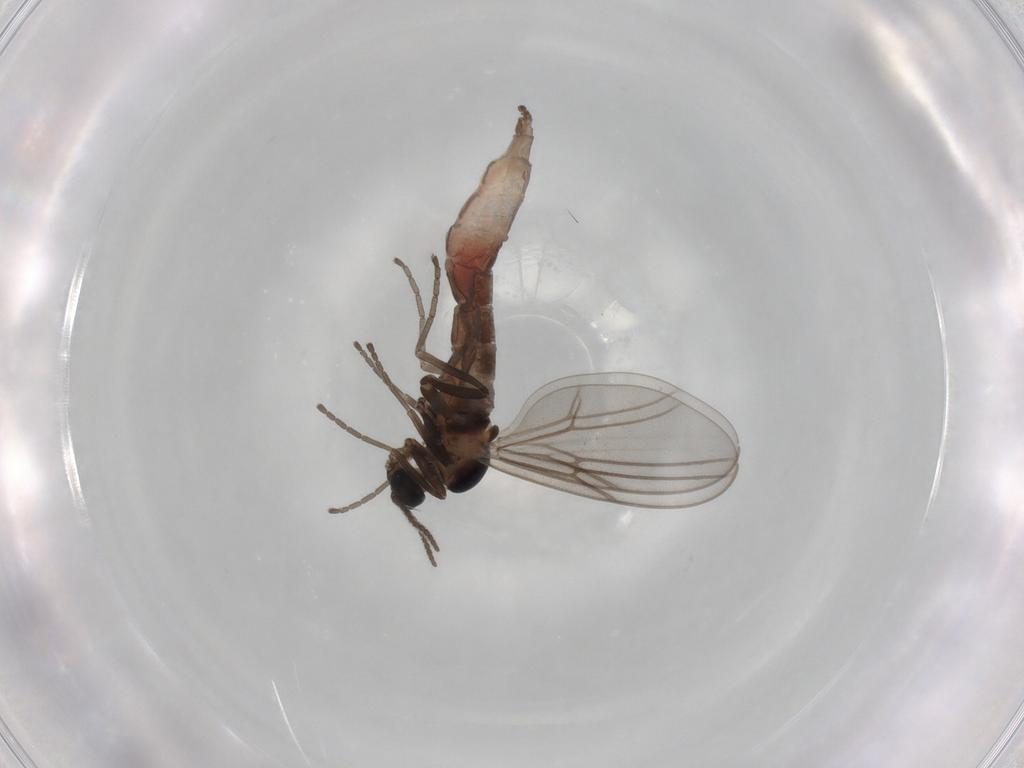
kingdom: Animalia
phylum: Arthropoda
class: Insecta
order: Diptera
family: Cecidomyiidae
